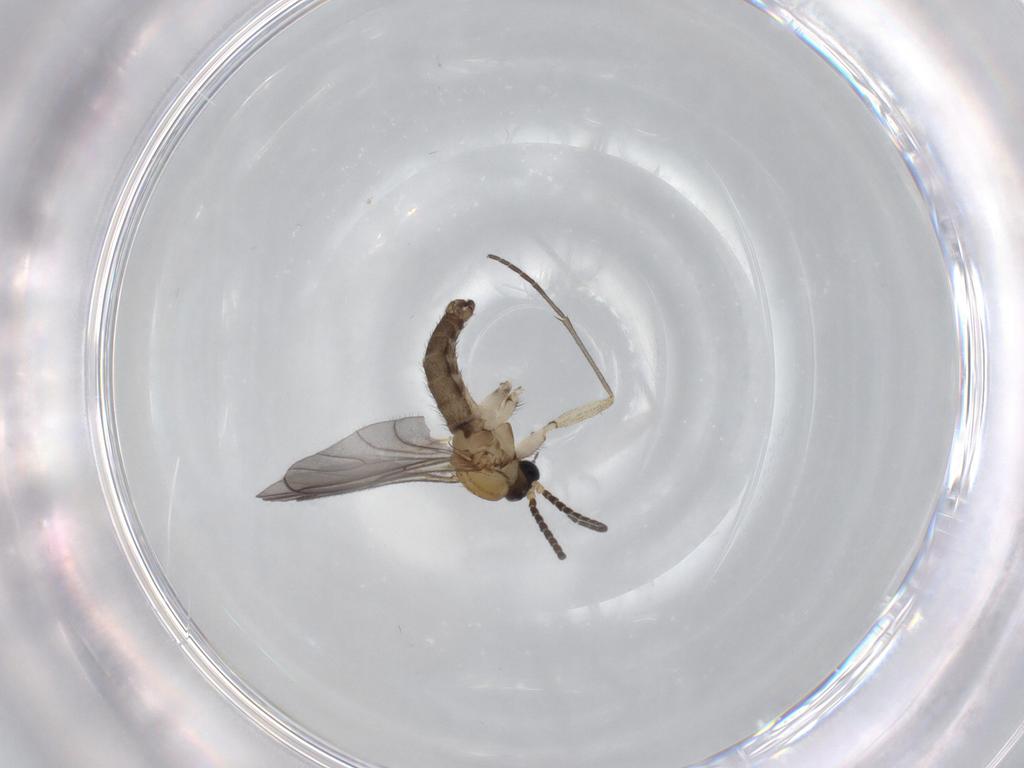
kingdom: Animalia
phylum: Arthropoda
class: Insecta
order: Diptera
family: Sciaridae
